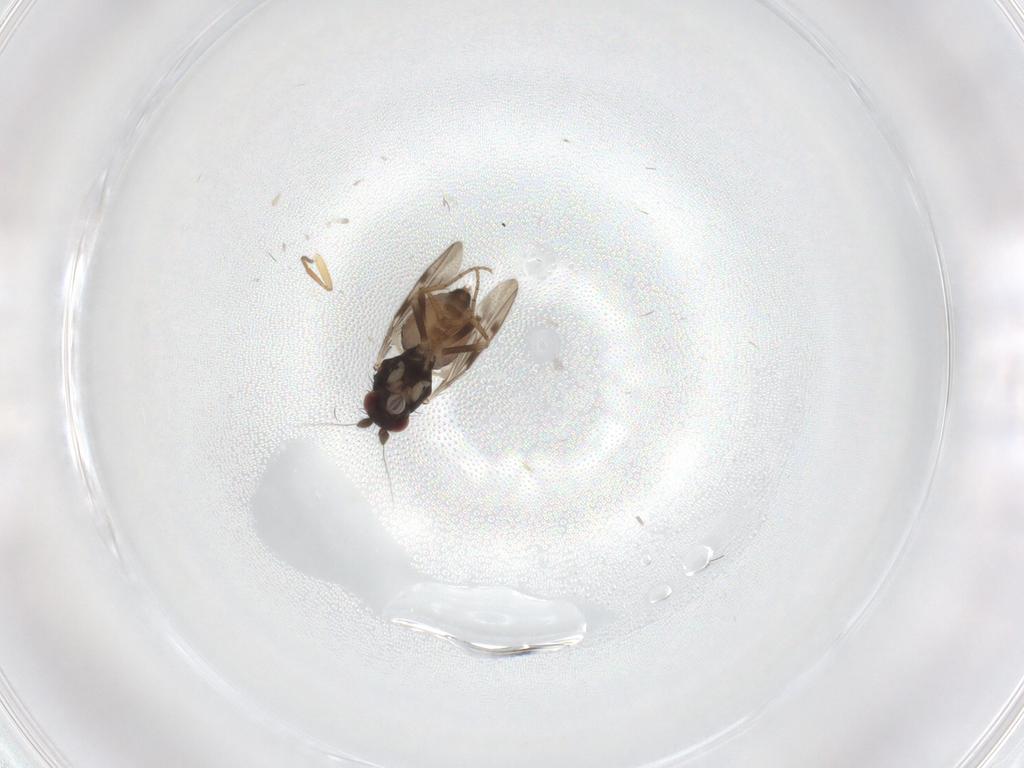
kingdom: Animalia
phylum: Arthropoda
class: Insecta
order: Diptera
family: Sphaeroceridae
